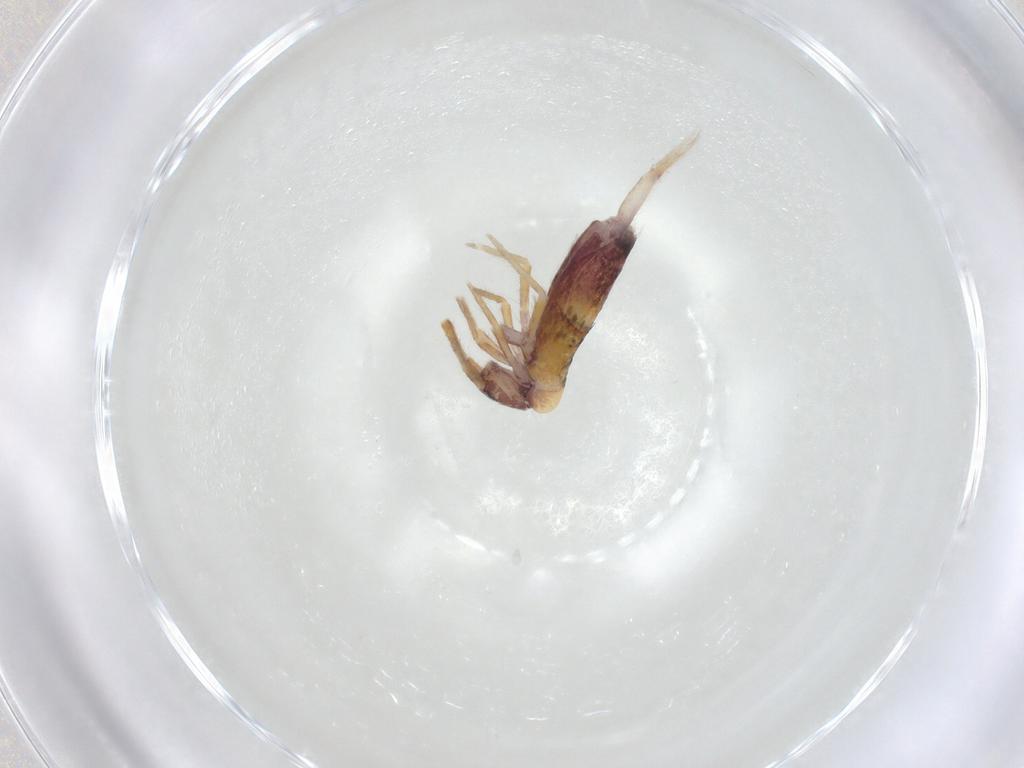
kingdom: Animalia
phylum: Arthropoda
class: Collembola
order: Entomobryomorpha
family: Entomobryidae
